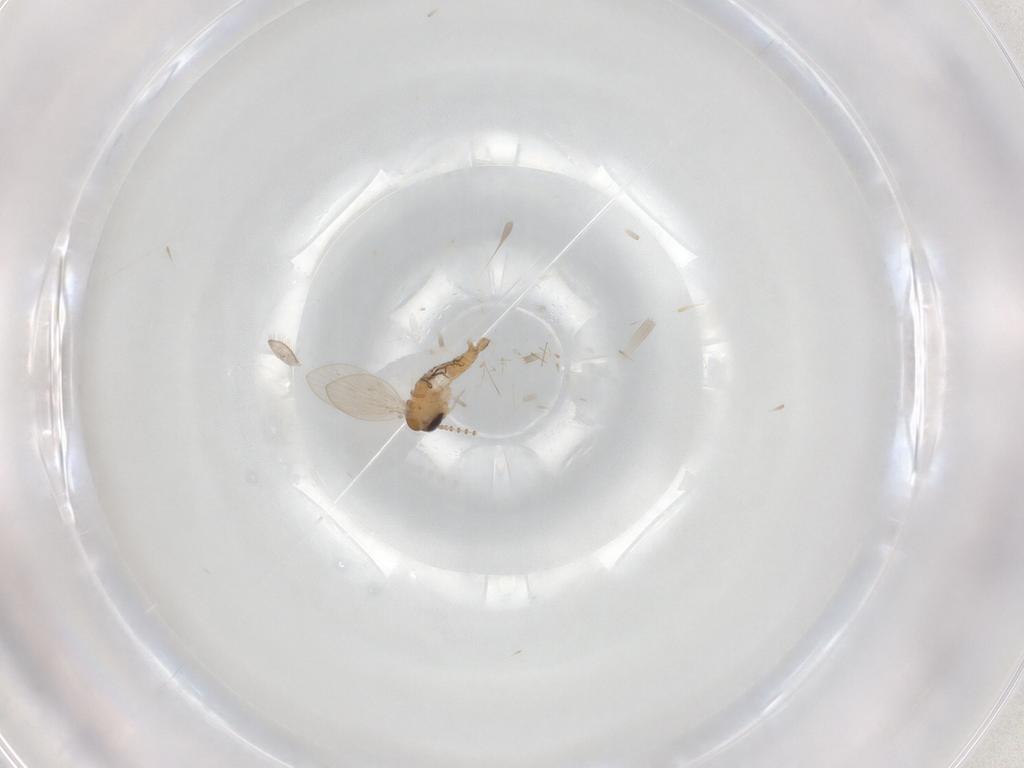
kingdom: Animalia
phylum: Arthropoda
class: Insecta
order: Diptera
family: Psychodidae
